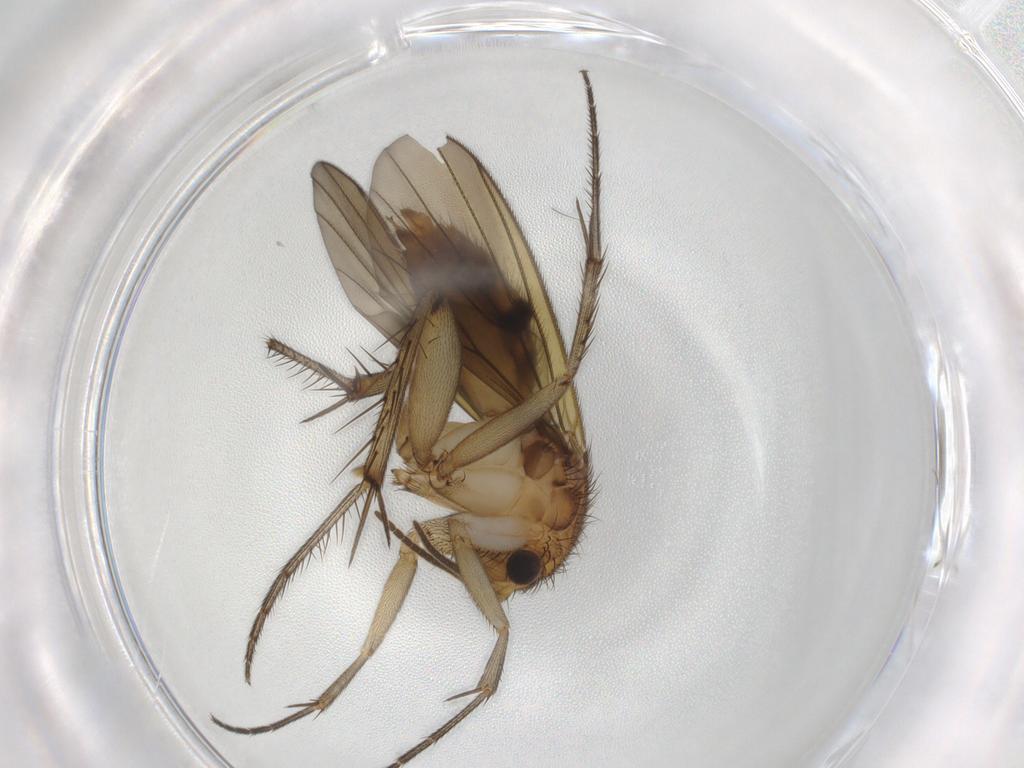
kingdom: Animalia
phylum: Arthropoda
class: Insecta
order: Diptera
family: Mycetophilidae
